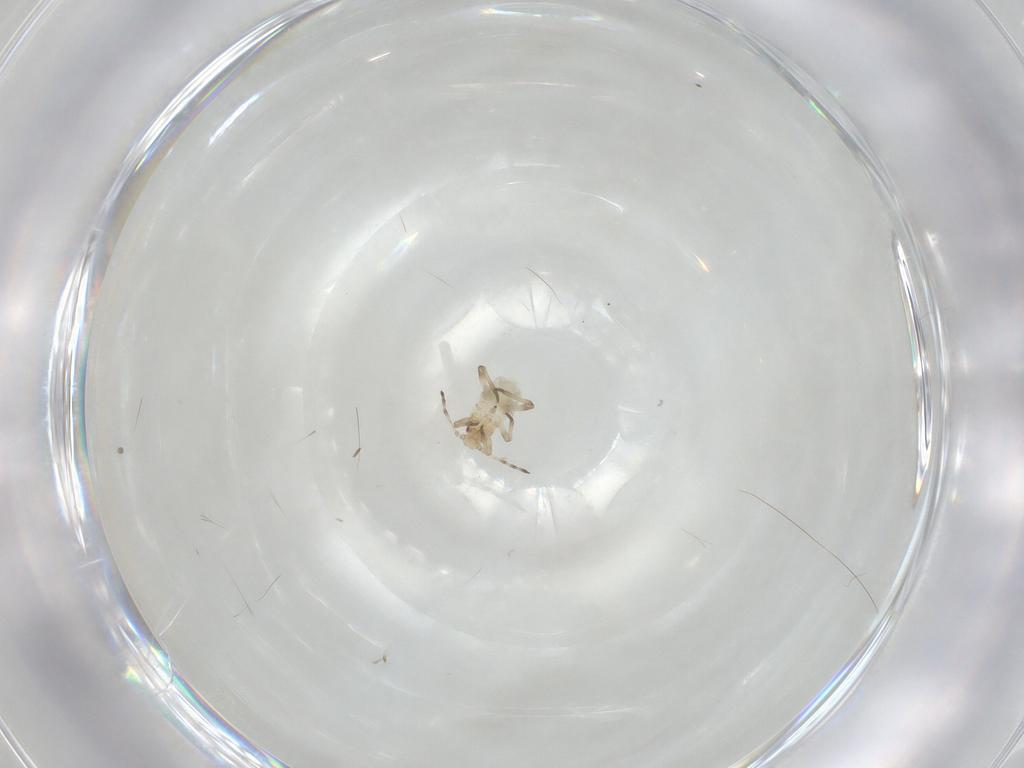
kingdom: Animalia
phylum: Arthropoda
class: Insecta
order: Hemiptera
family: Aphididae
